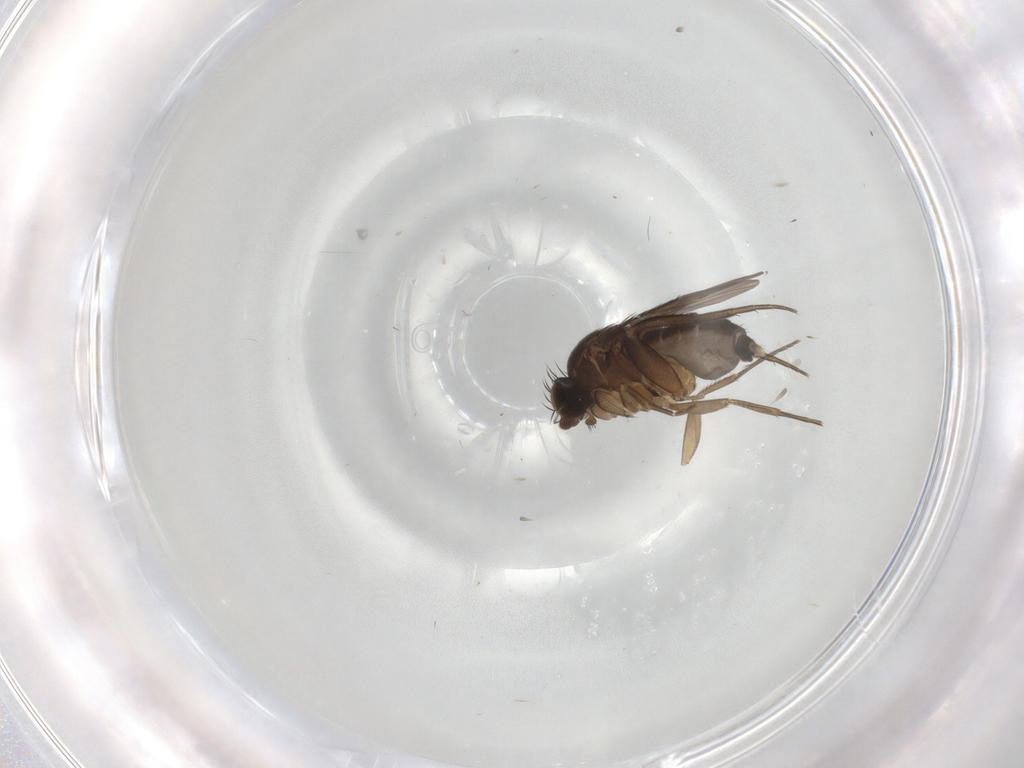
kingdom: Animalia
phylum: Arthropoda
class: Insecta
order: Diptera
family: Phoridae
